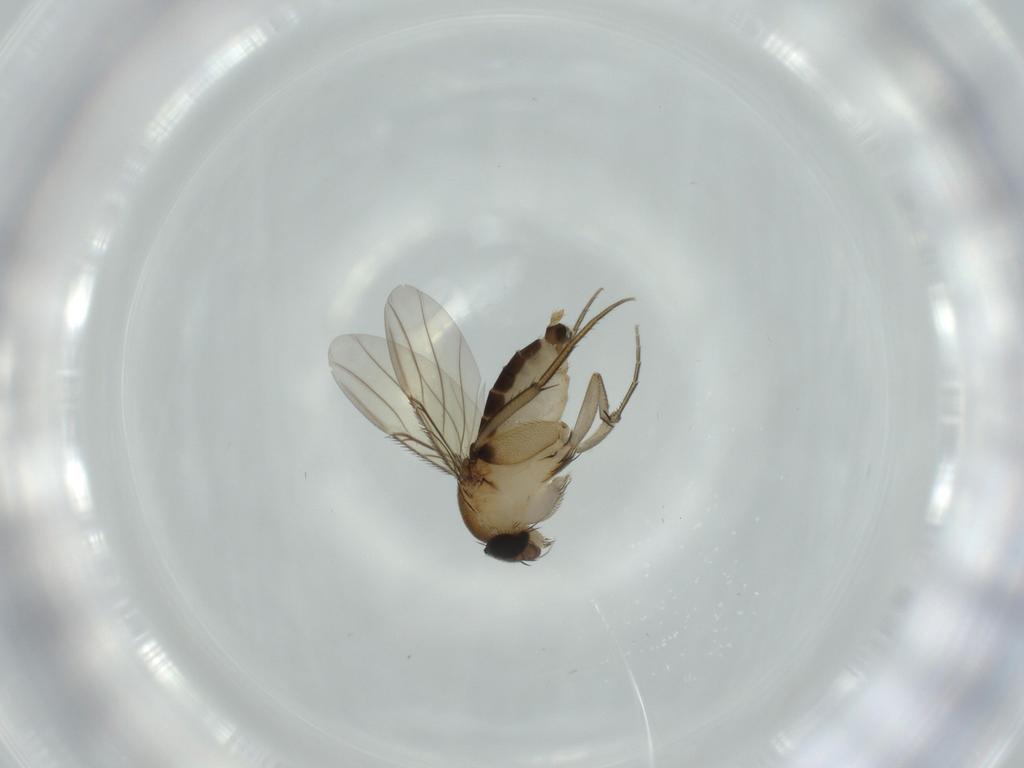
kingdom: Animalia
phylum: Arthropoda
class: Insecta
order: Diptera
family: Phoridae
